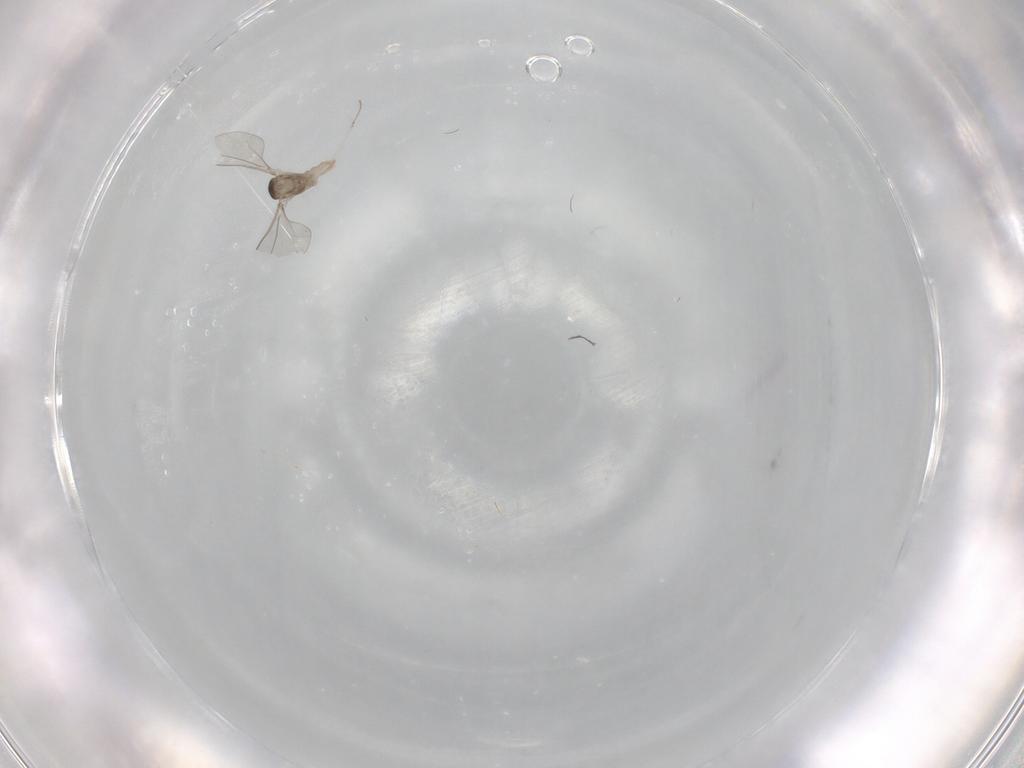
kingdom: Animalia
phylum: Arthropoda
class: Insecta
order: Diptera
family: Cecidomyiidae
